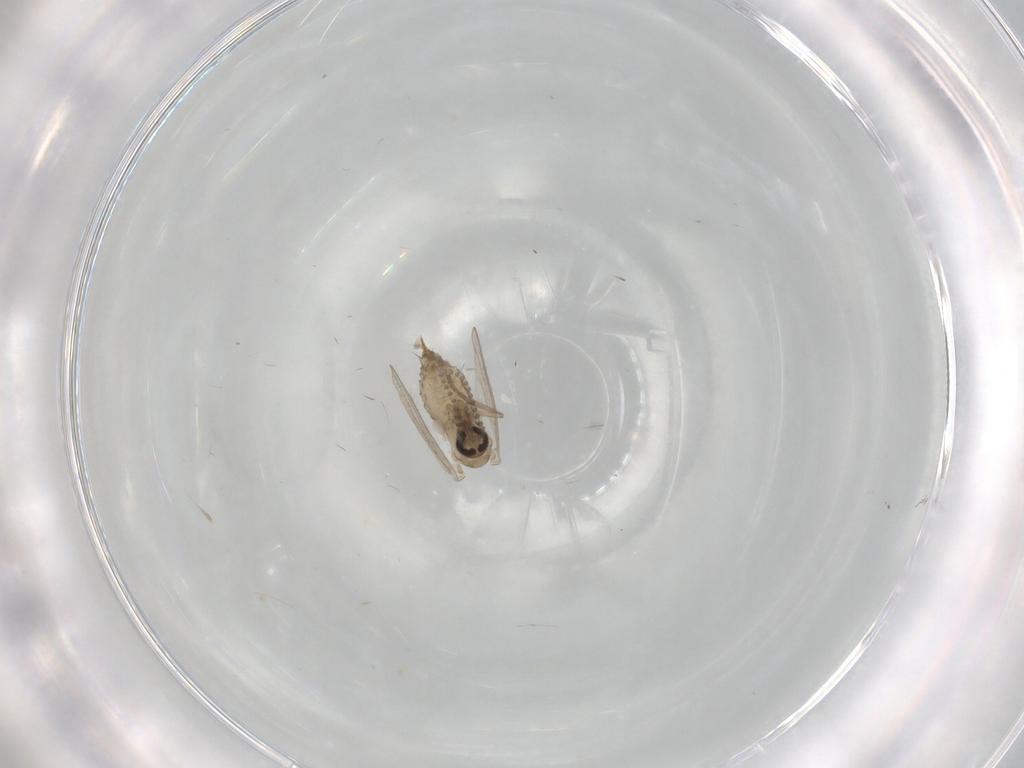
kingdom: Animalia
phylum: Arthropoda
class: Insecta
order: Diptera
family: Psychodidae
